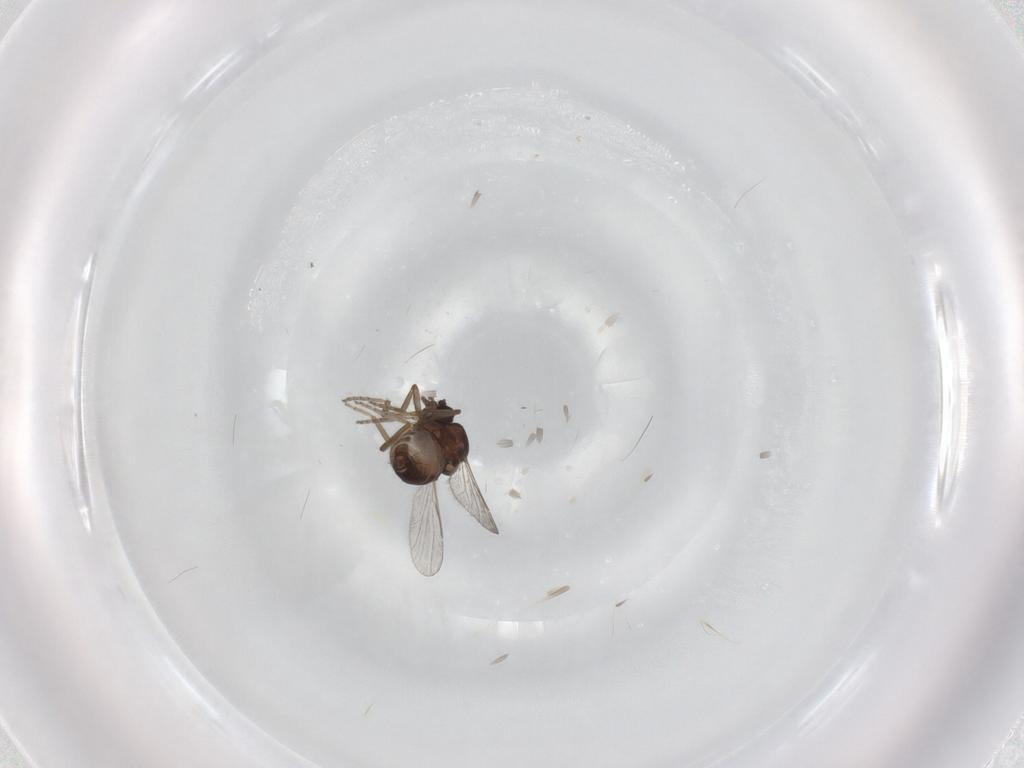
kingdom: Animalia
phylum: Arthropoda
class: Insecta
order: Diptera
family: Ceratopogonidae
